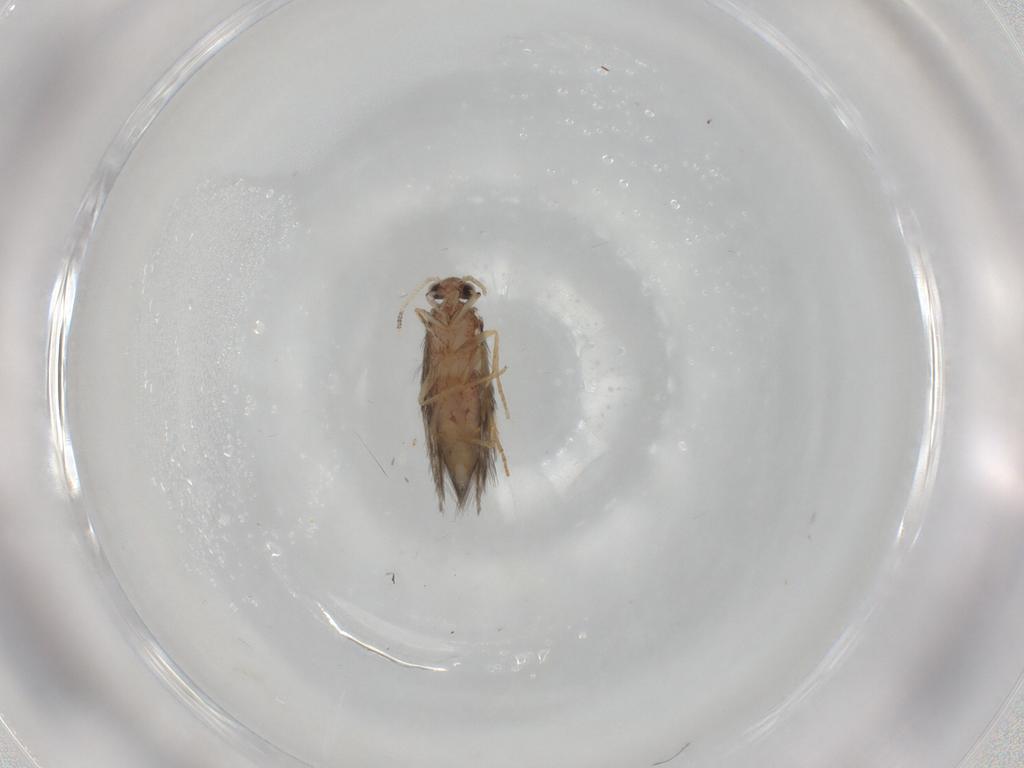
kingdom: Animalia
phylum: Arthropoda
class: Insecta
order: Trichoptera
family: Hydroptilidae
